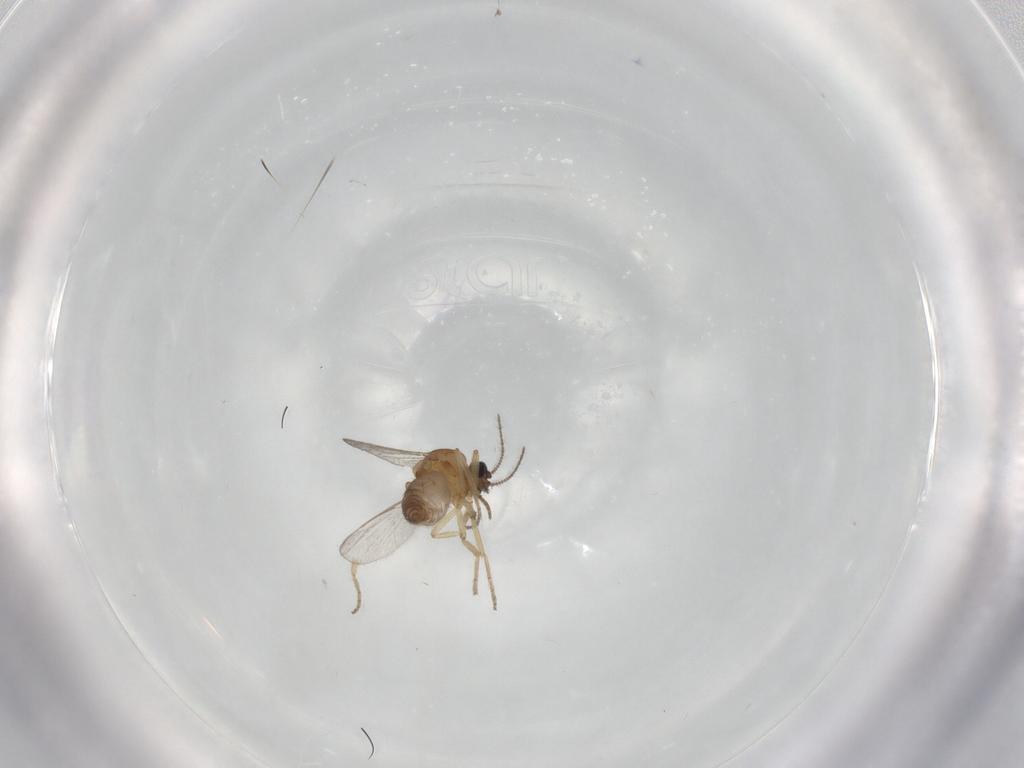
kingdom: Animalia
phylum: Arthropoda
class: Insecta
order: Diptera
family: Ceratopogonidae
